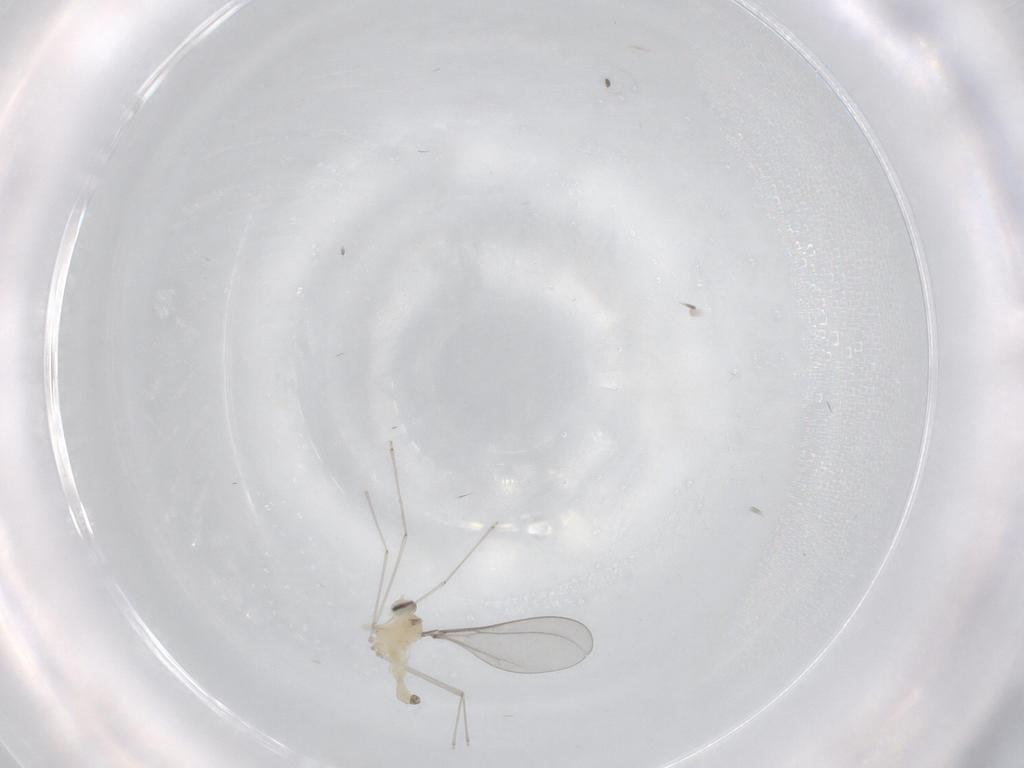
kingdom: Animalia
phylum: Arthropoda
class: Insecta
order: Diptera
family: Cecidomyiidae
